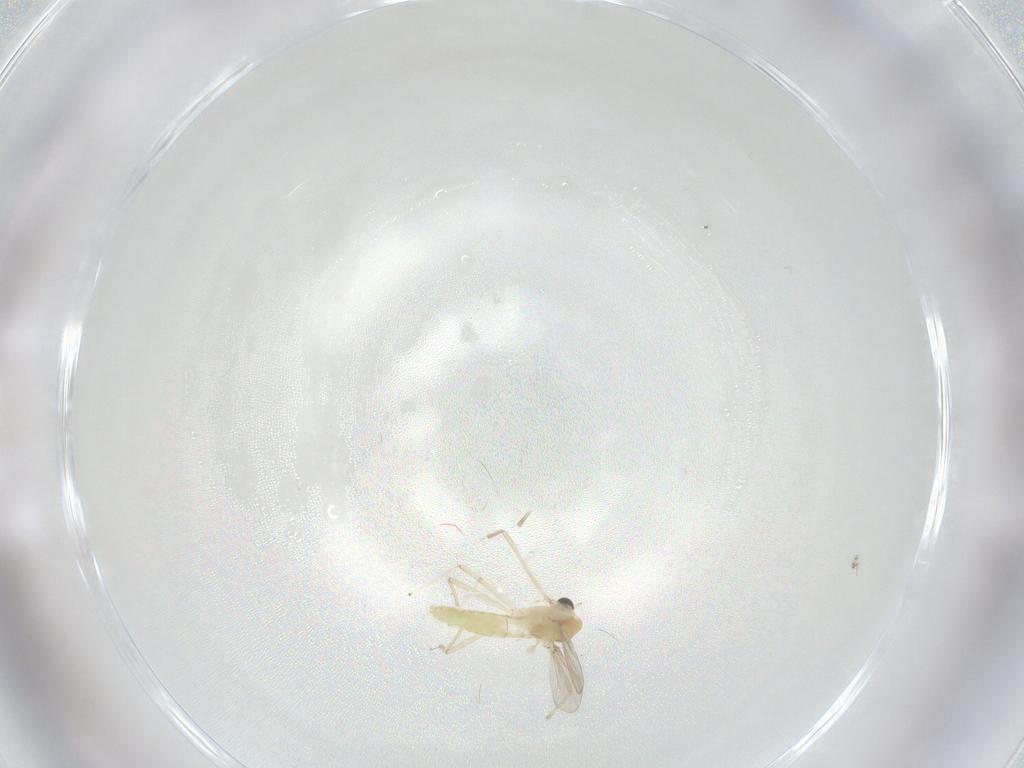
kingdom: Animalia
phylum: Arthropoda
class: Insecta
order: Diptera
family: Chironomidae
